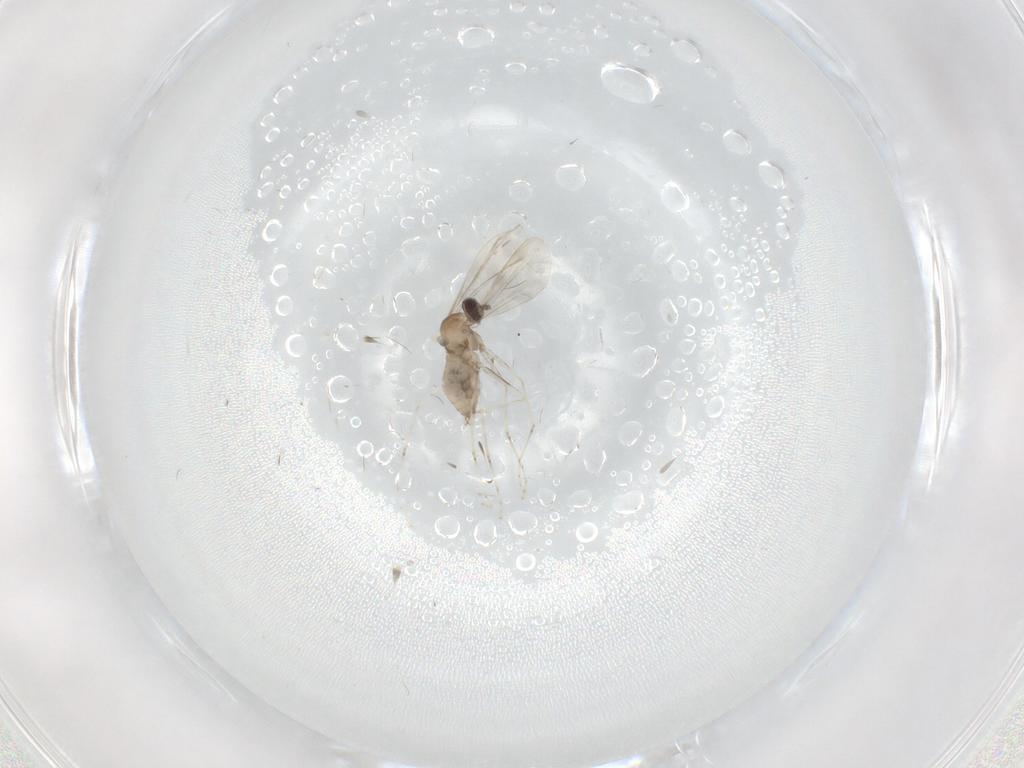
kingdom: Animalia
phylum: Arthropoda
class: Insecta
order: Diptera
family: Cecidomyiidae
